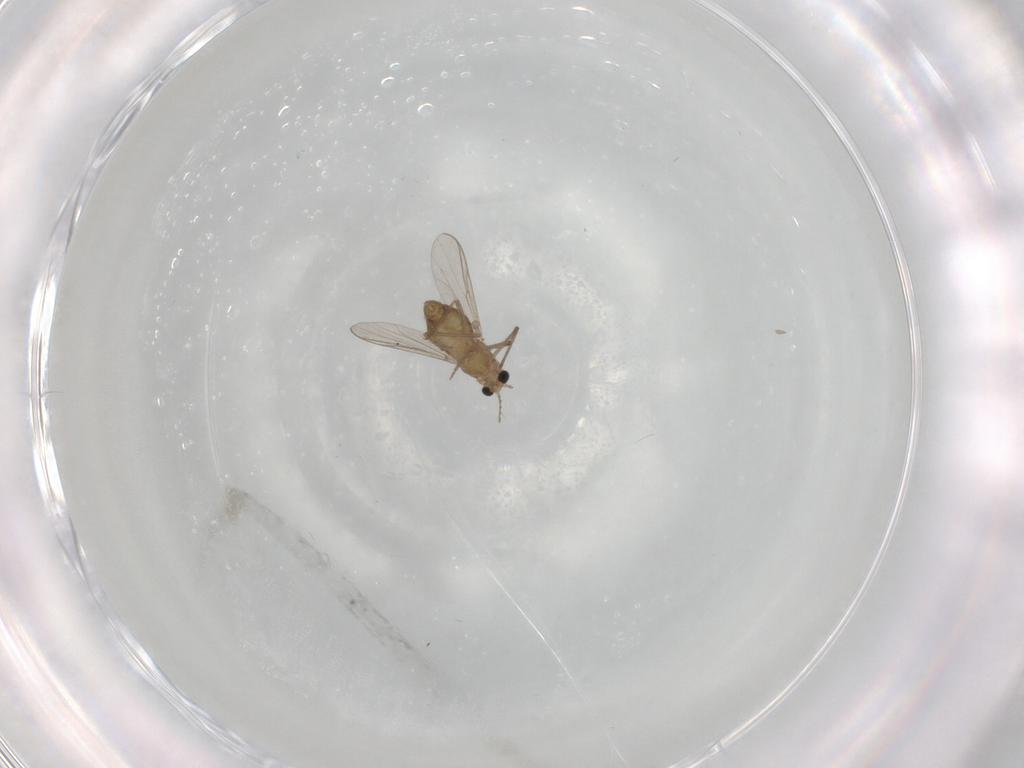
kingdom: Animalia
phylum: Arthropoda
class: Insecta
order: Diptera
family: Chironomidae
